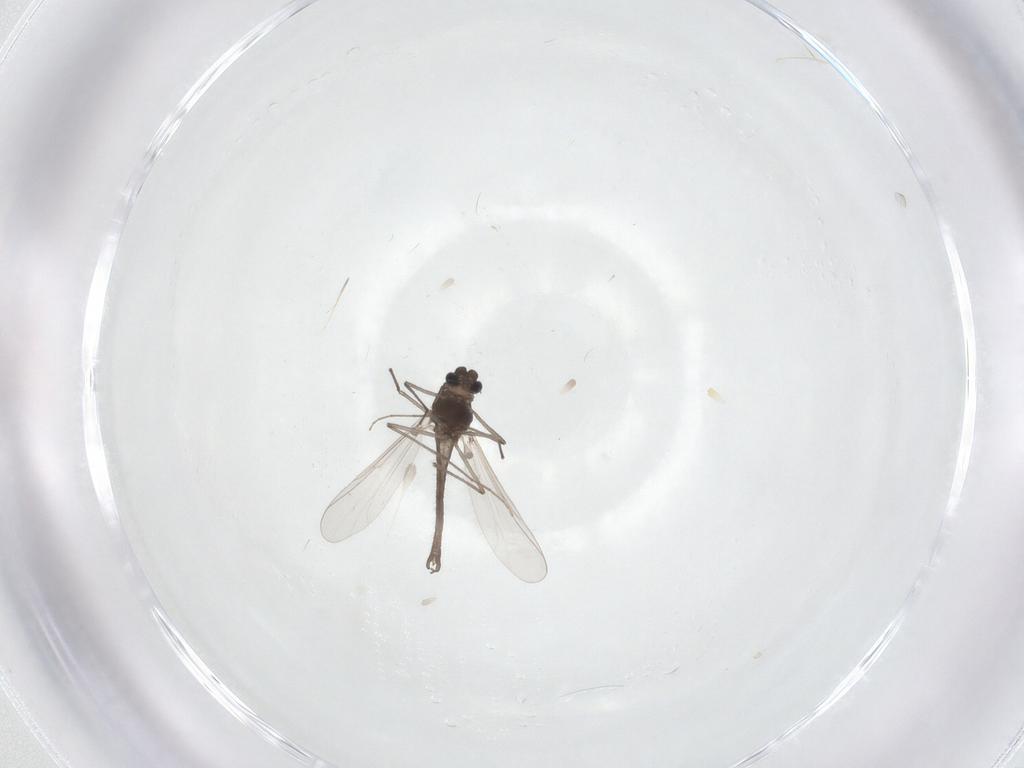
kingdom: Animalia
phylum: Arthropoda
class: Insecta
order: Diptera
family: Chironomidae
